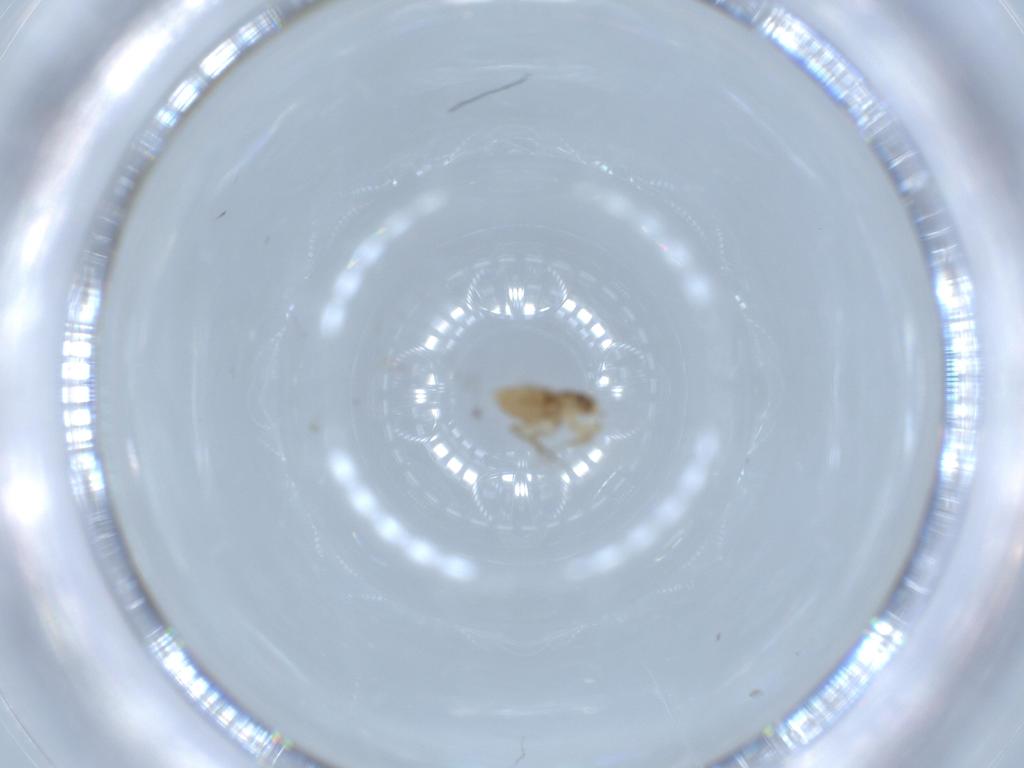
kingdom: Animalia
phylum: Arthropoda
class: Insecta
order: Diptera
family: Phoridae
